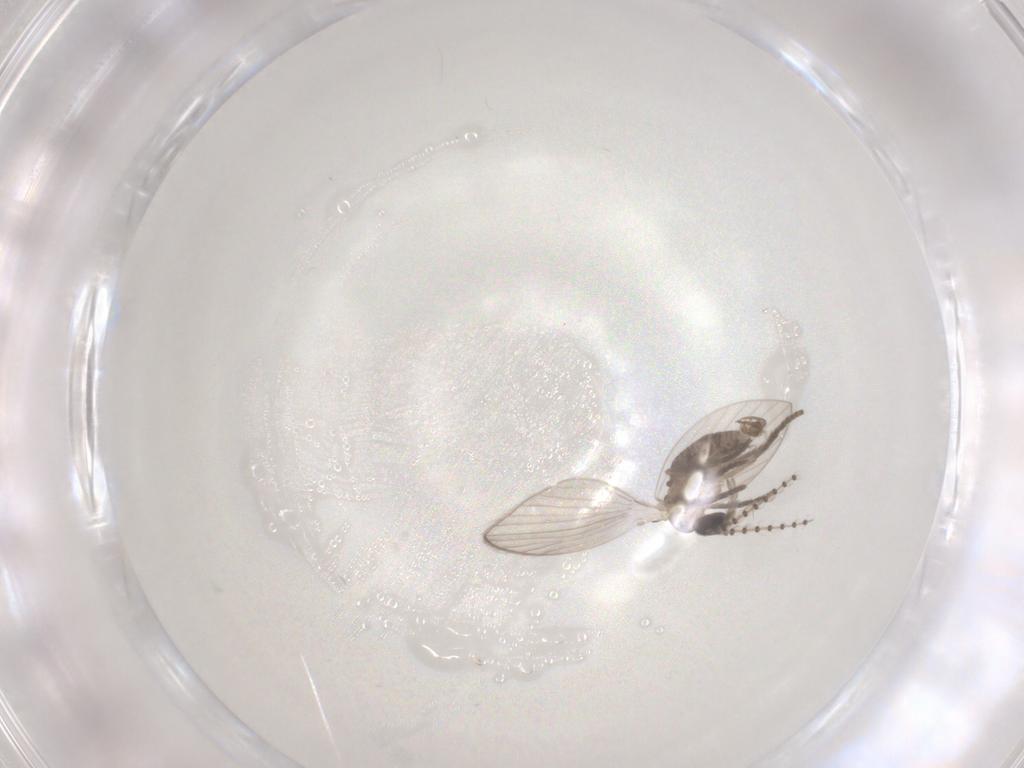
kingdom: Animalia
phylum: Arthropoda
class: Insecta
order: Diptera
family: Psychodidae
